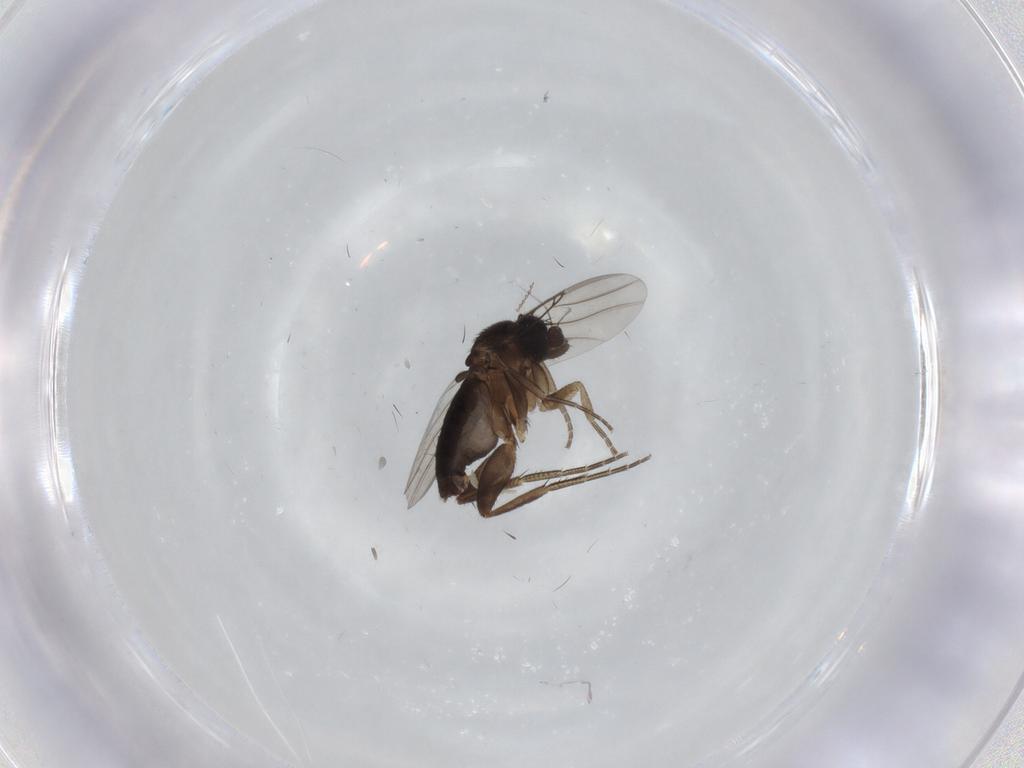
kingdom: Animalia
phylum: Arthropoda
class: Insecta
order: Diptera
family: Phoridae
